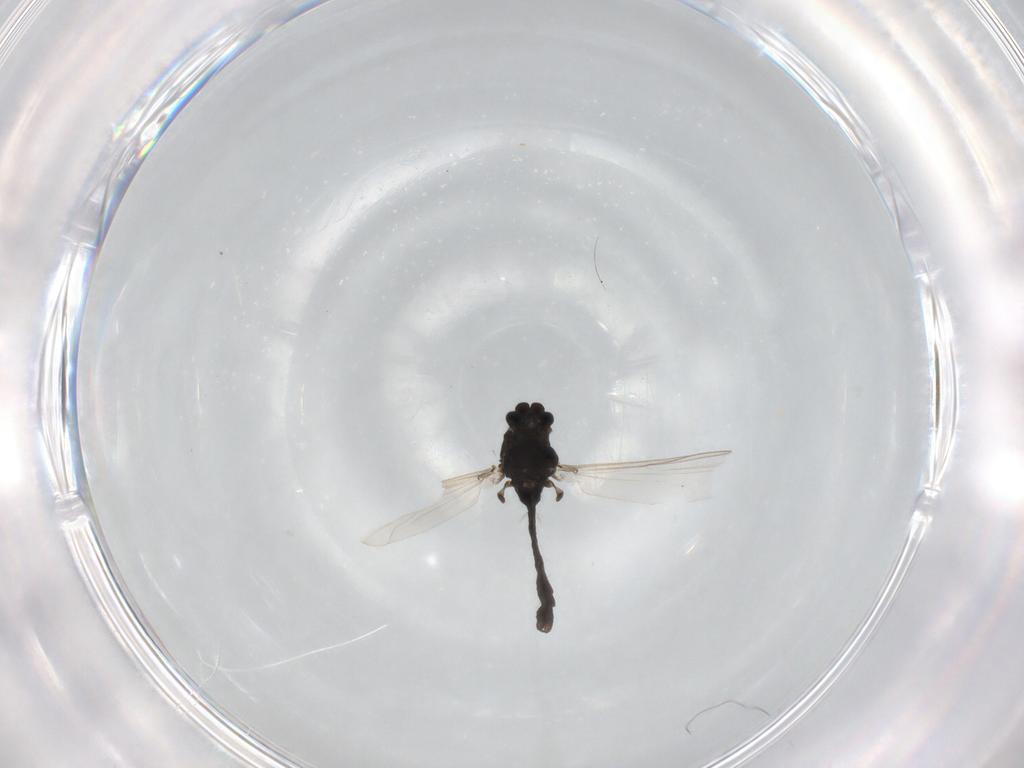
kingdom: Animalia
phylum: Arthropoda
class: Insecta
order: Diptera
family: Chironomidae
